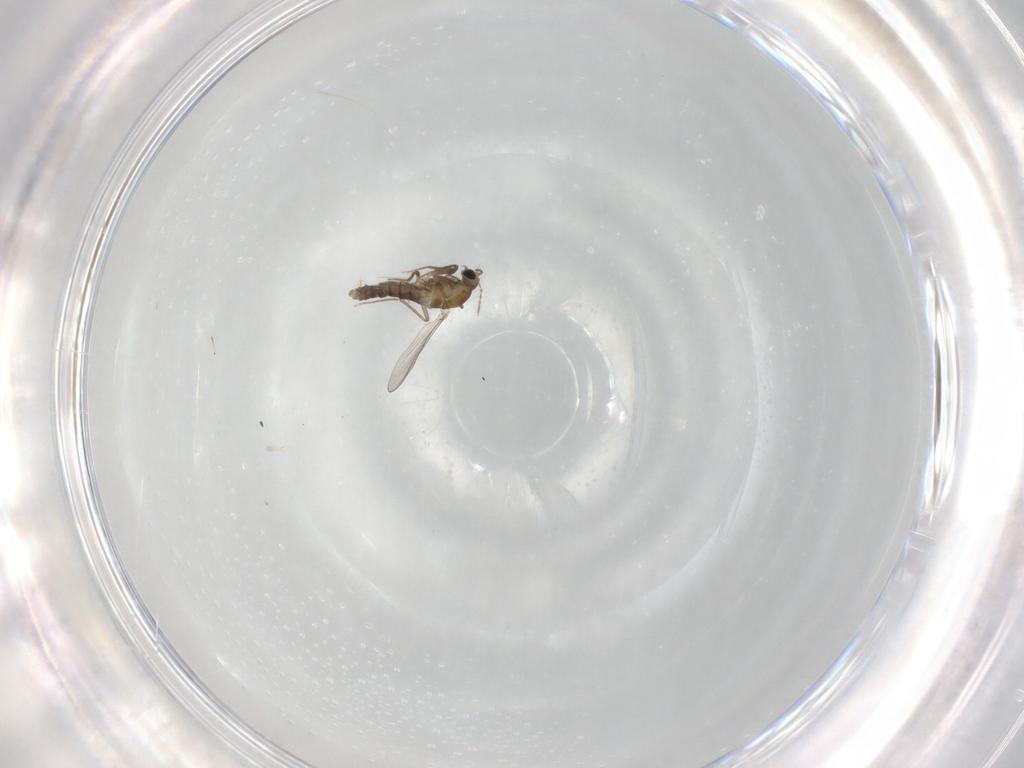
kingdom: Animalia
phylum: Arthropoda
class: Insecta
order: Diptera
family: Chironomidae
